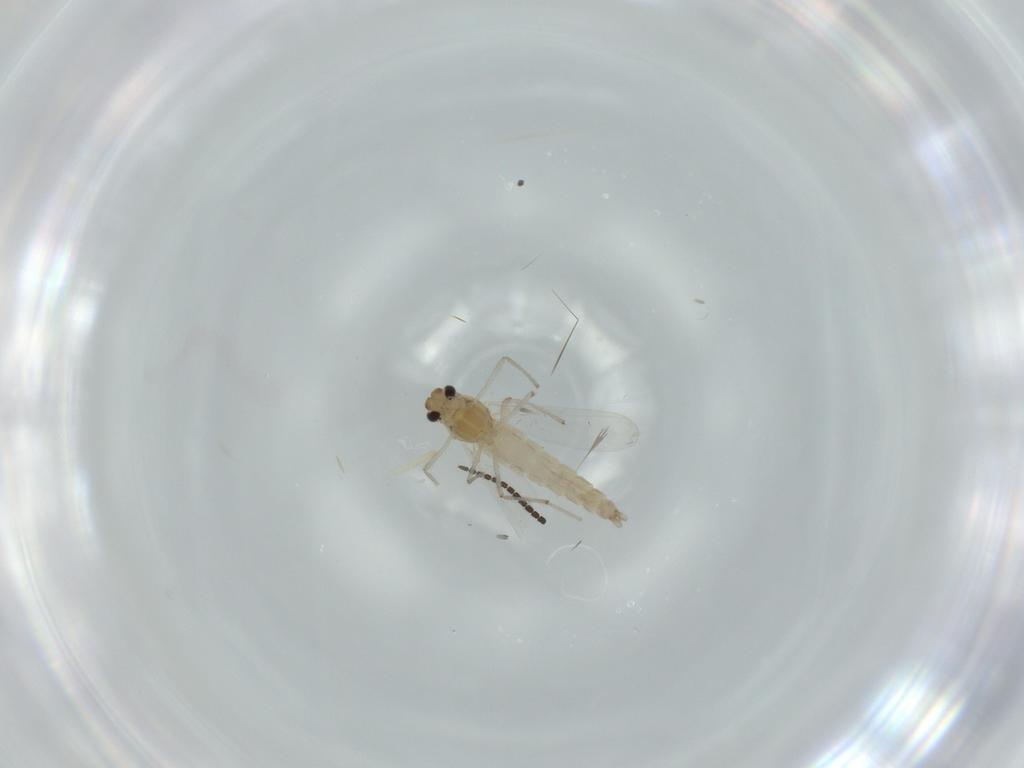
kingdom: Animalia
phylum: Arthropoda
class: Insecta
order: Diptera
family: Chironomidae
